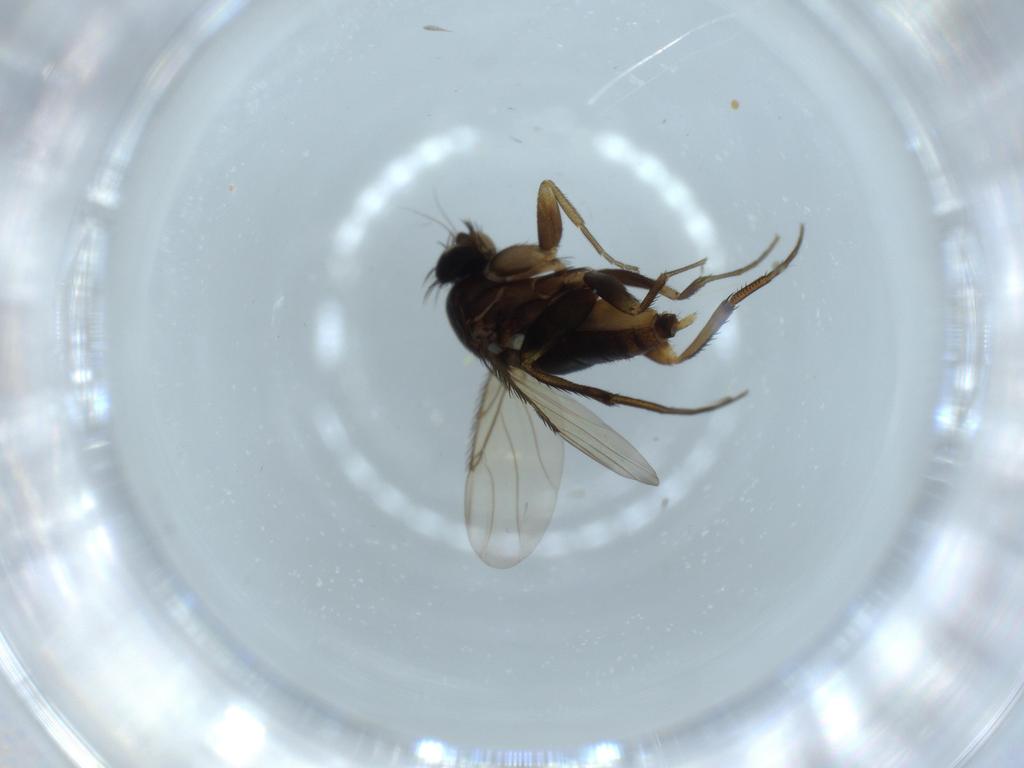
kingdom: Animalia
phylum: Arthropoda
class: Insecta
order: Diptera
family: Phoridae
